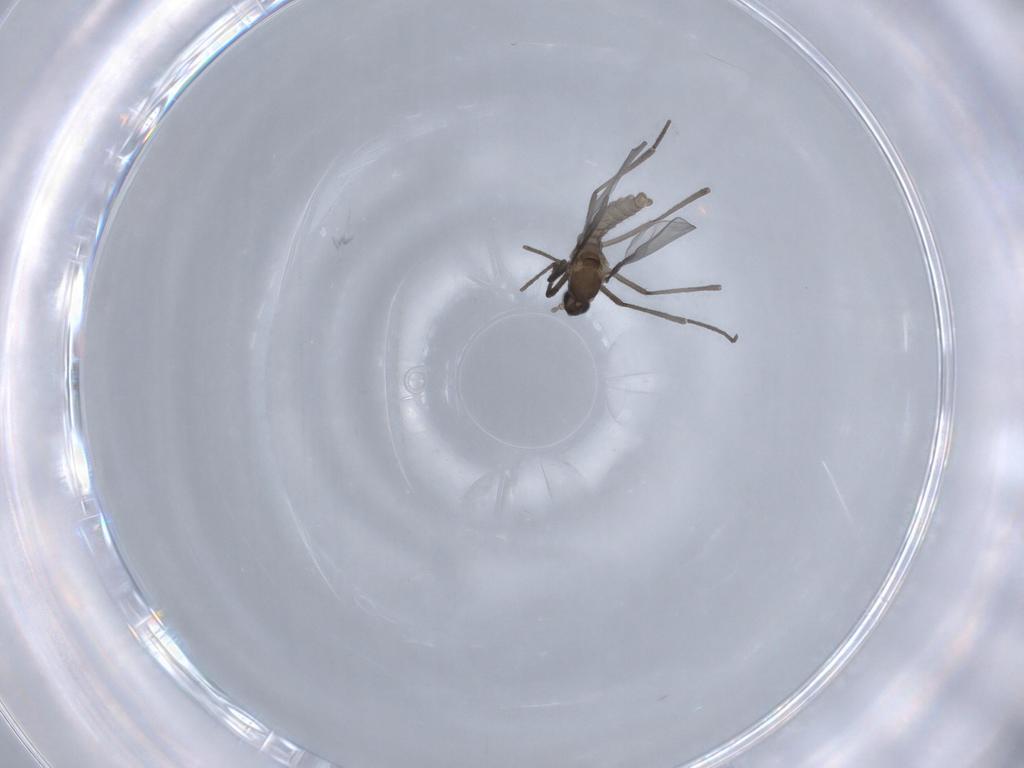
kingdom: Animalia
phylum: Arthropoda
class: Insecta
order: Diptera
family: Cecidomyiidae
